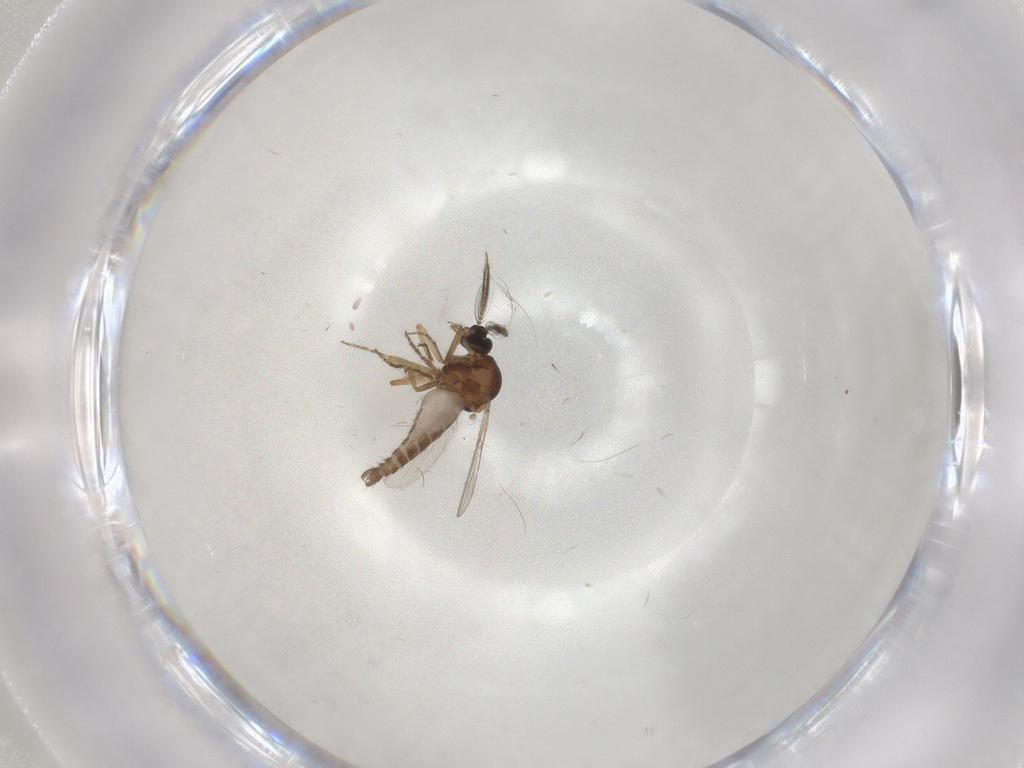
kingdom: Animalia
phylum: Arthropoda
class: Insecta
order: Diptera
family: Ceratopogonidae
